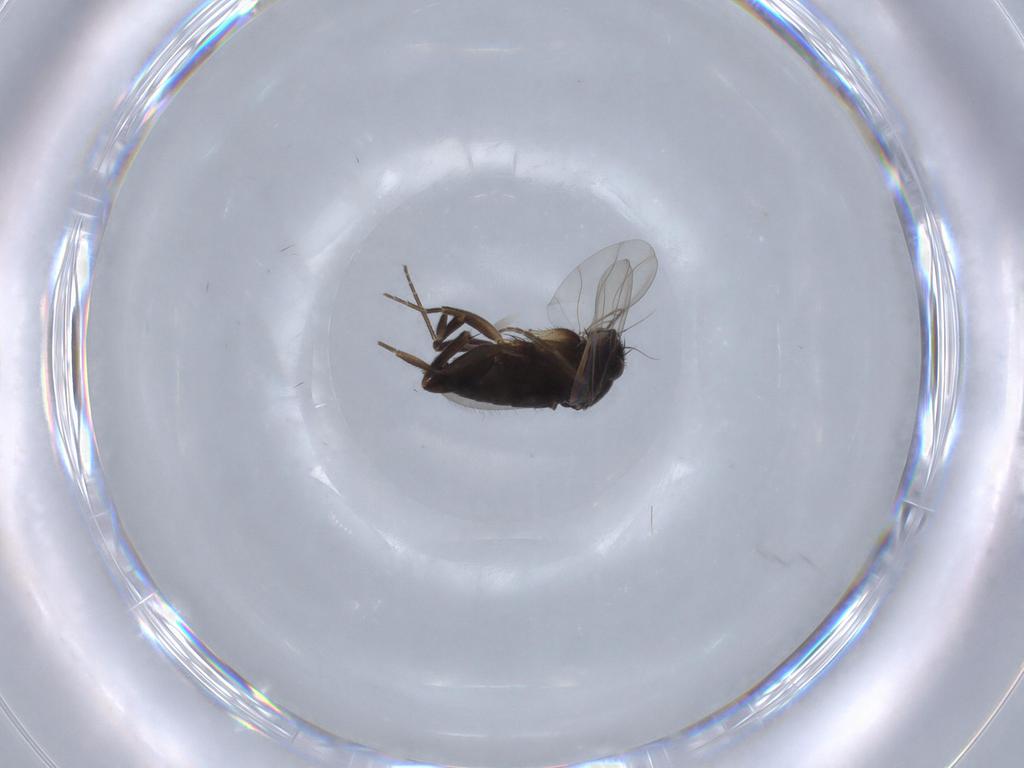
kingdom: Animalia
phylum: Arthropoda
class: Insecta
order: Diptera
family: Phoridae
